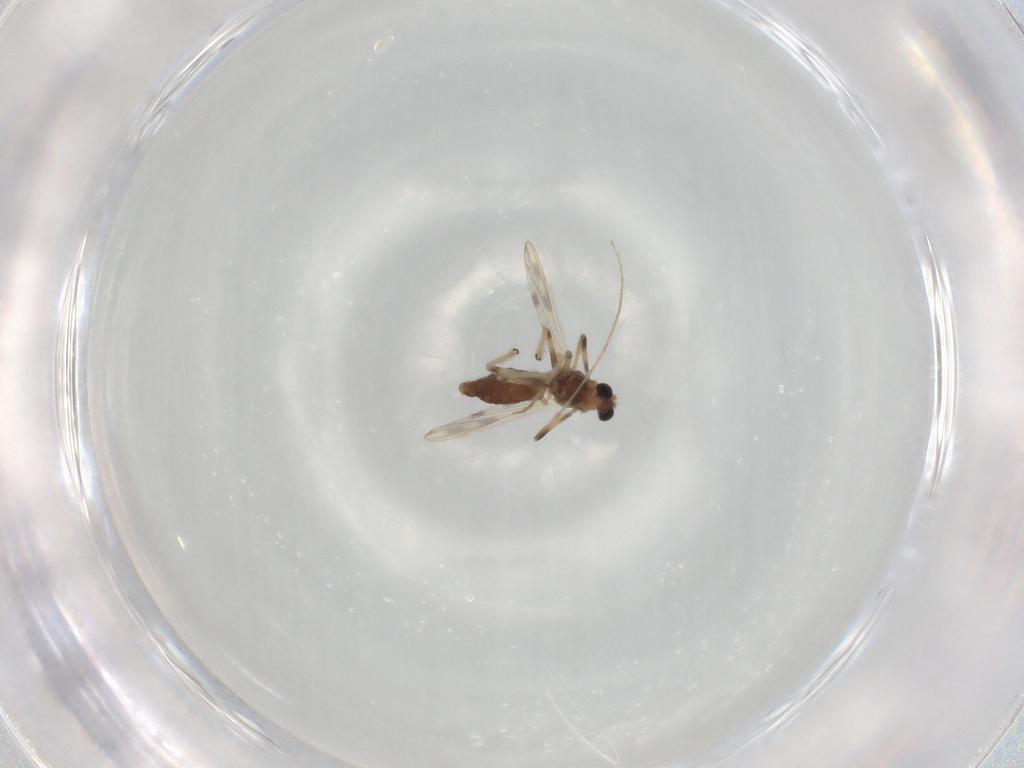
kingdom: Animalia
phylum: Arthropoda
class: Insecta
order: Diptera
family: Chironomidae
